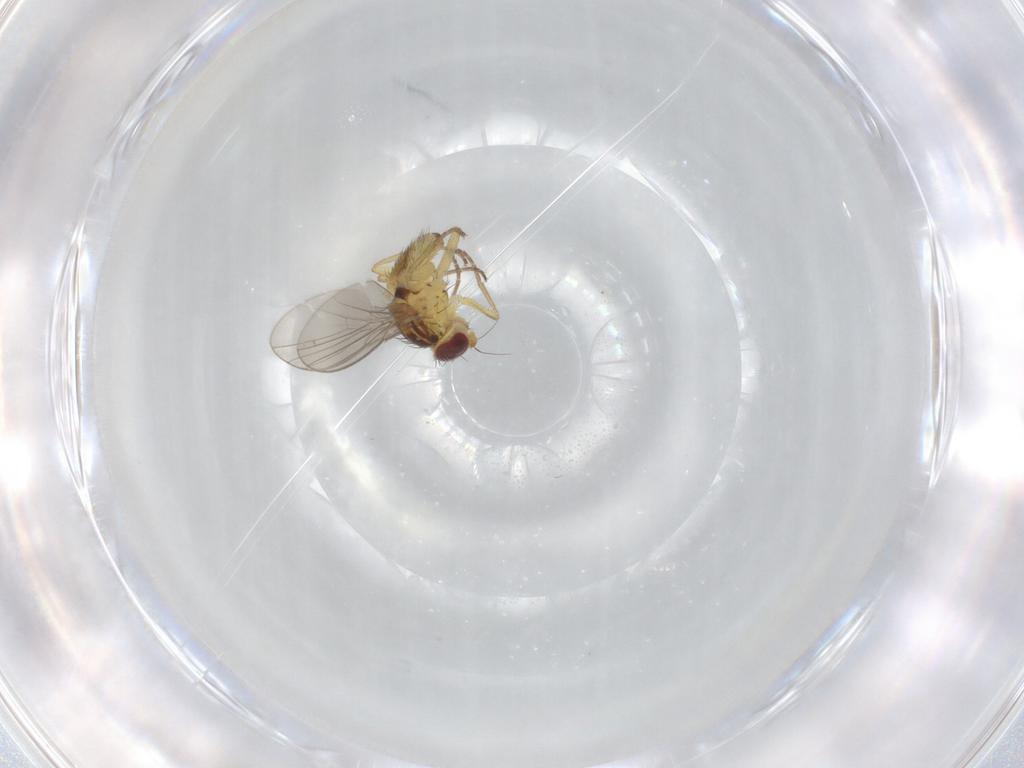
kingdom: Animalia
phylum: Arthropoda
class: Insecta
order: Diptera
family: Agromyzidae
